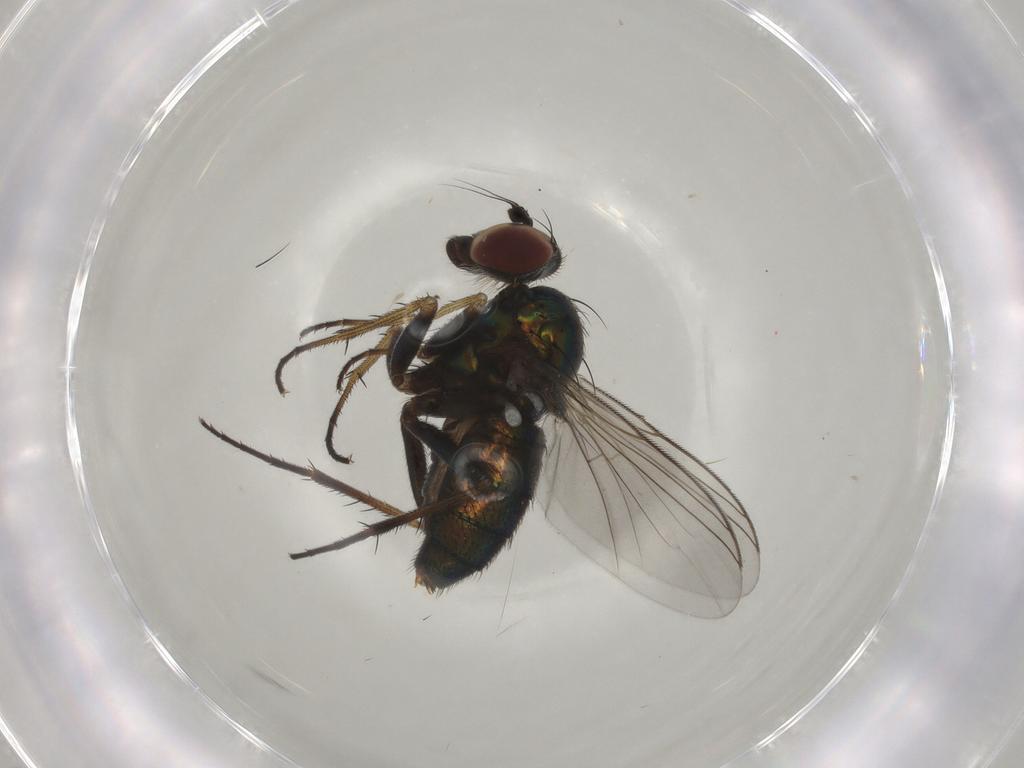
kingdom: Animalia
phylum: Arthropoda
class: Insecta
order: Diptera
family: Dolichopodidae
